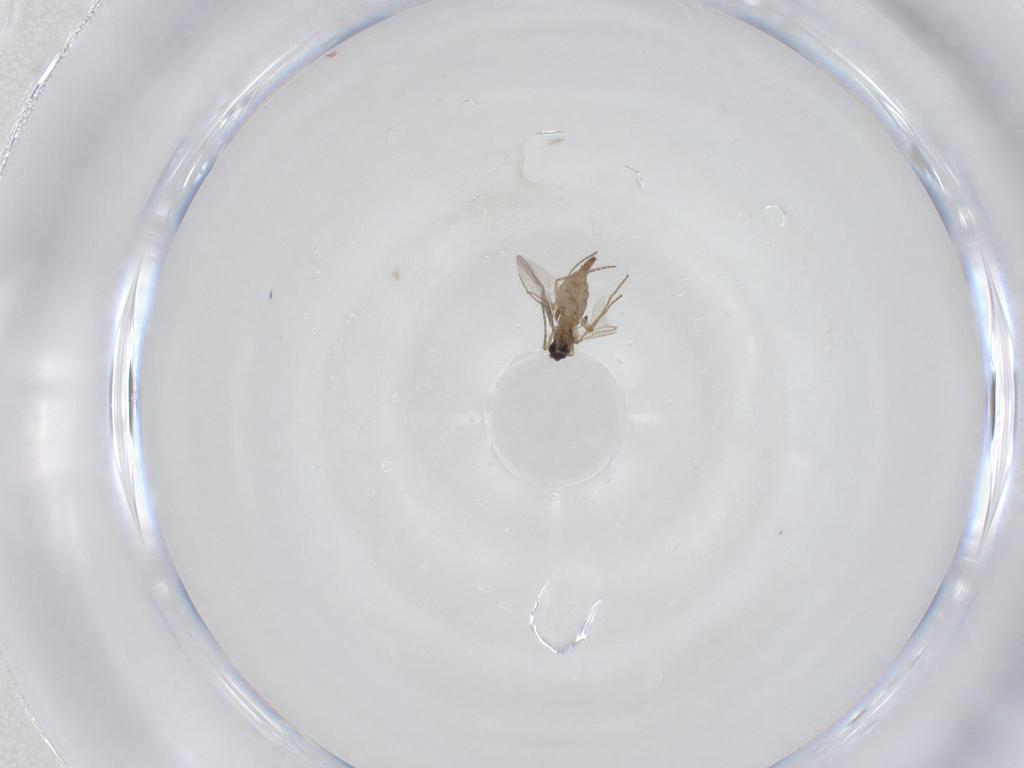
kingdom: Animalia
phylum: Arthropoda
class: Insecta
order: Diptera
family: Sciaridae
